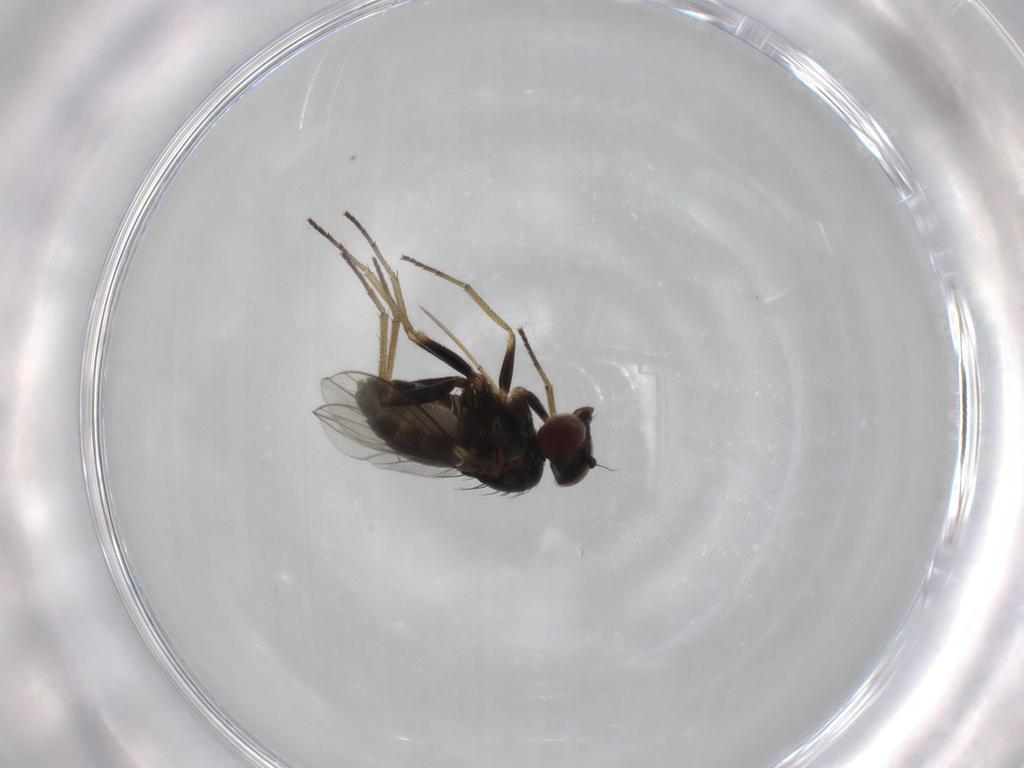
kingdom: Animalia
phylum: Arthropoda
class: Insecta
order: Diptera
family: Dolichopodidae
